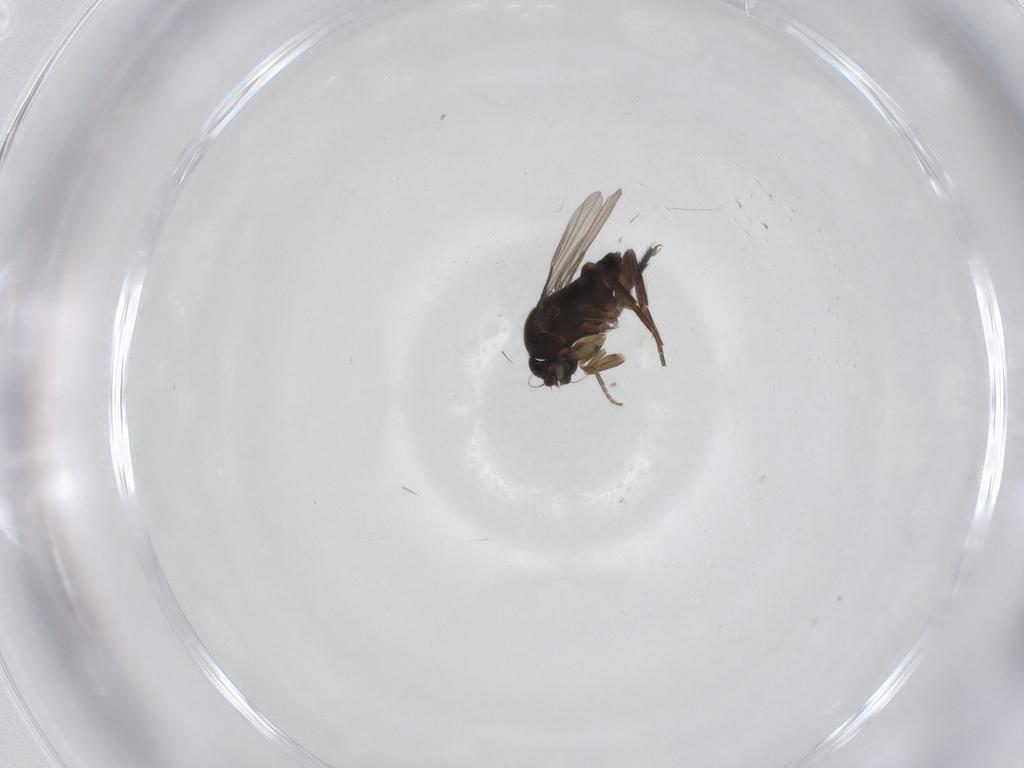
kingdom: Animalia
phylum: Arthropoda
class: Insecta
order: Diptera
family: Phoridae
